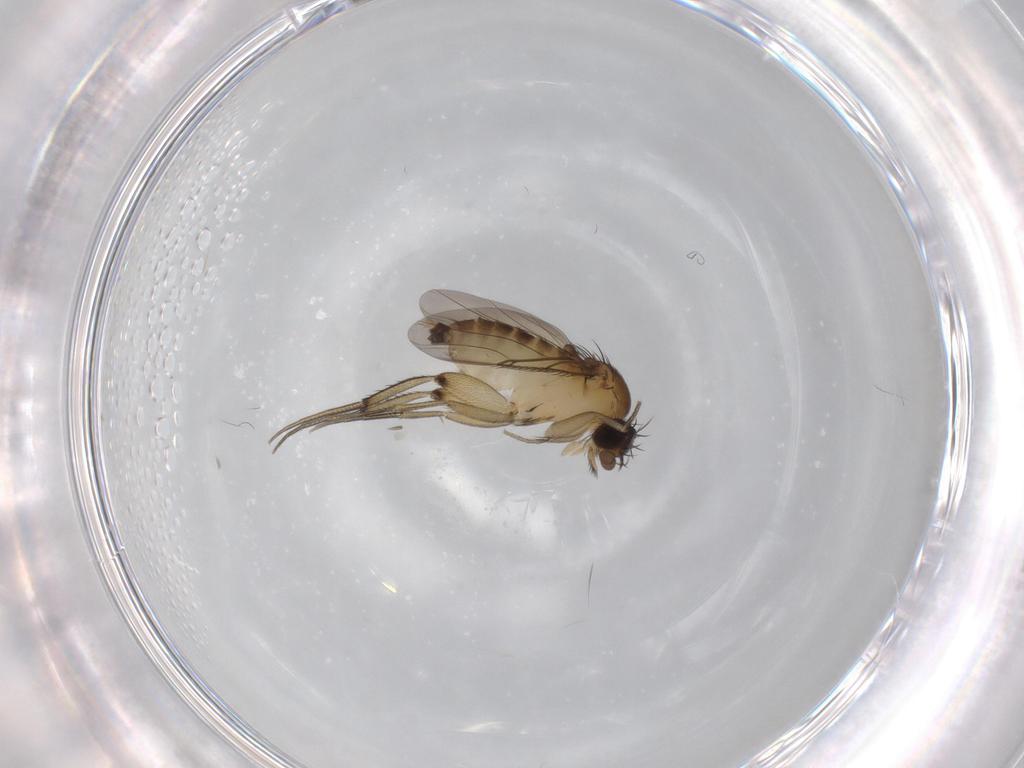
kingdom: Animalia
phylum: Arthropoda
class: Insecta
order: Diptera
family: Phoridae
